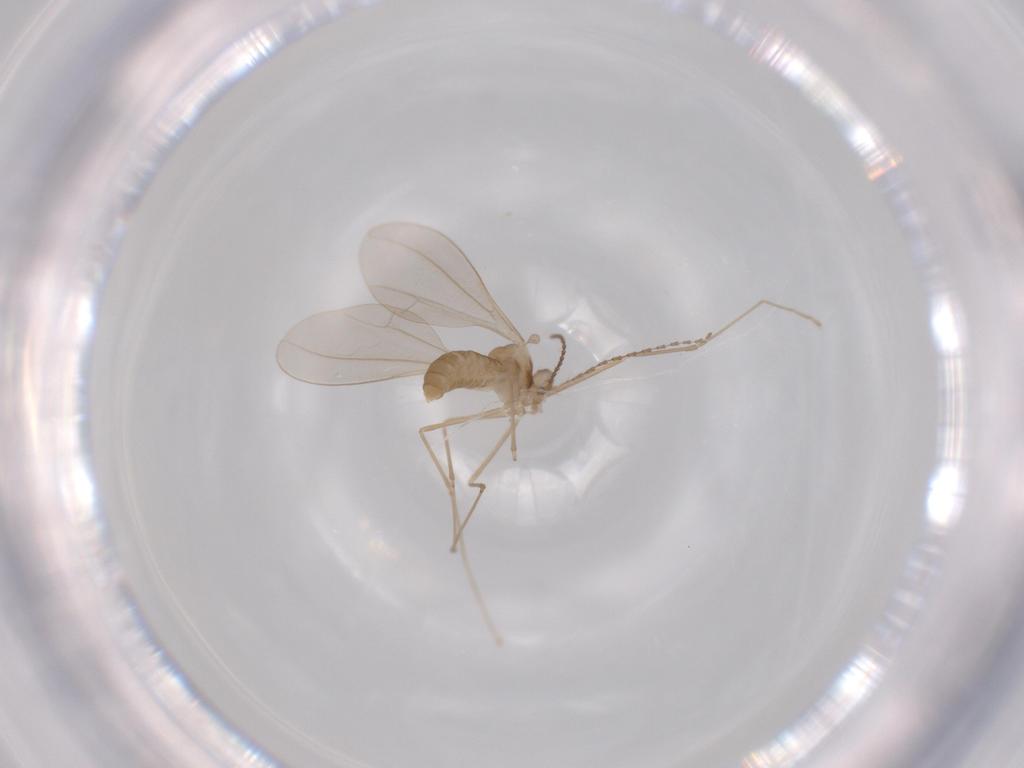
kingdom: Animalia
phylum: Arthropoda
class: Insecta
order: Diptera
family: Cecidomyiidae
